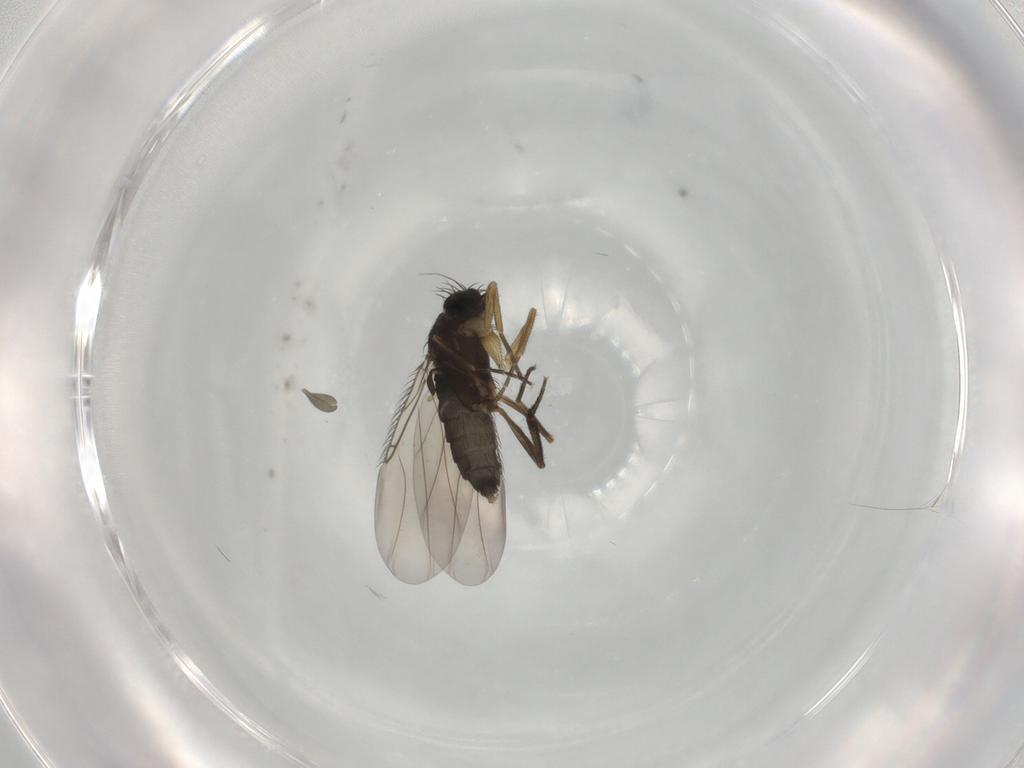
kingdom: Animalia
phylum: Arthropoda
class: Insecta
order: Diptera
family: Phoridae
